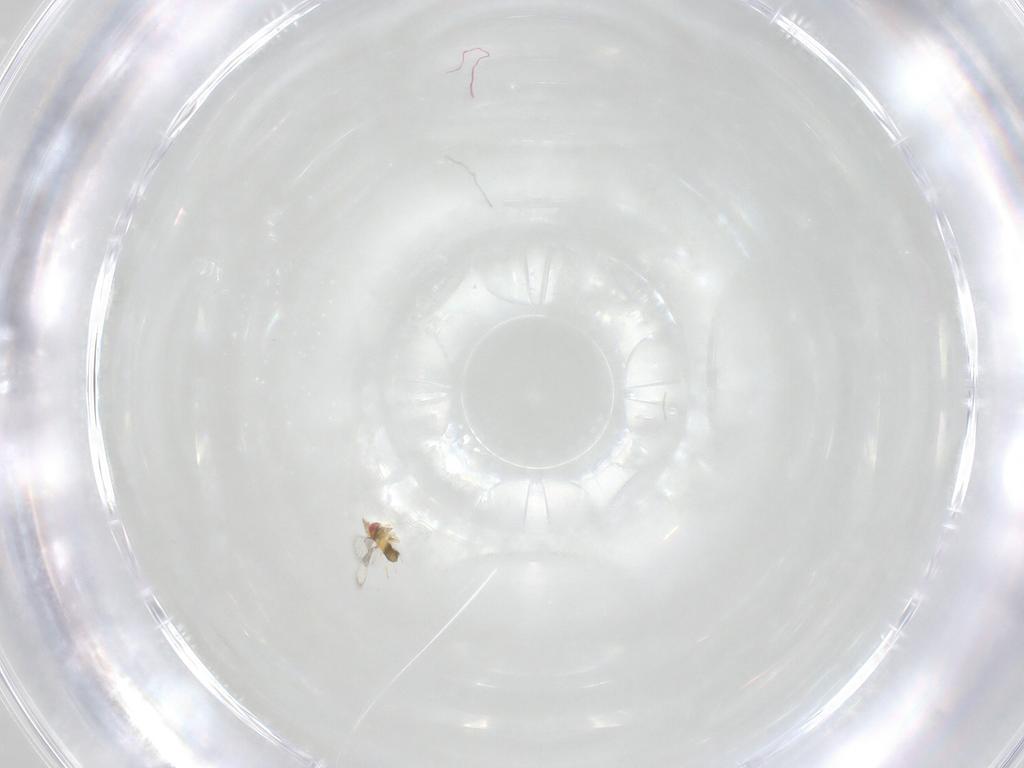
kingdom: Animalia
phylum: Arthropoda
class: Insecta
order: Hymenoptera
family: Trichogrammatidae
